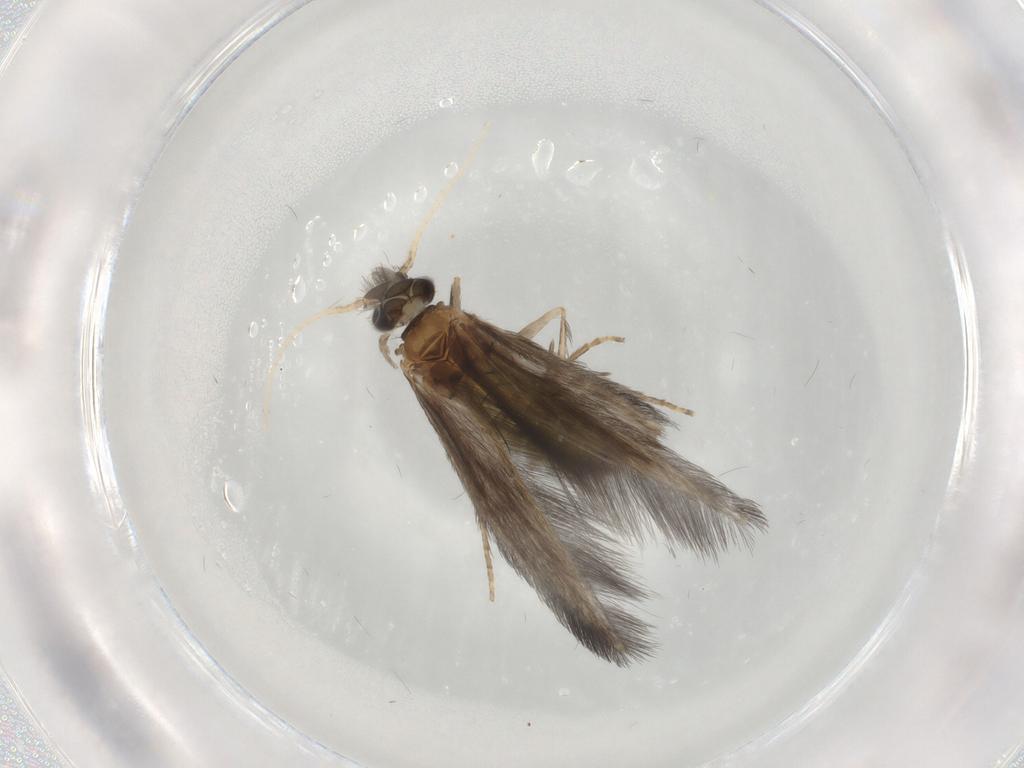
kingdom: Animalia
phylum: Arthropoda
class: Insecta
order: Trichoptera
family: Hydroptilidae
